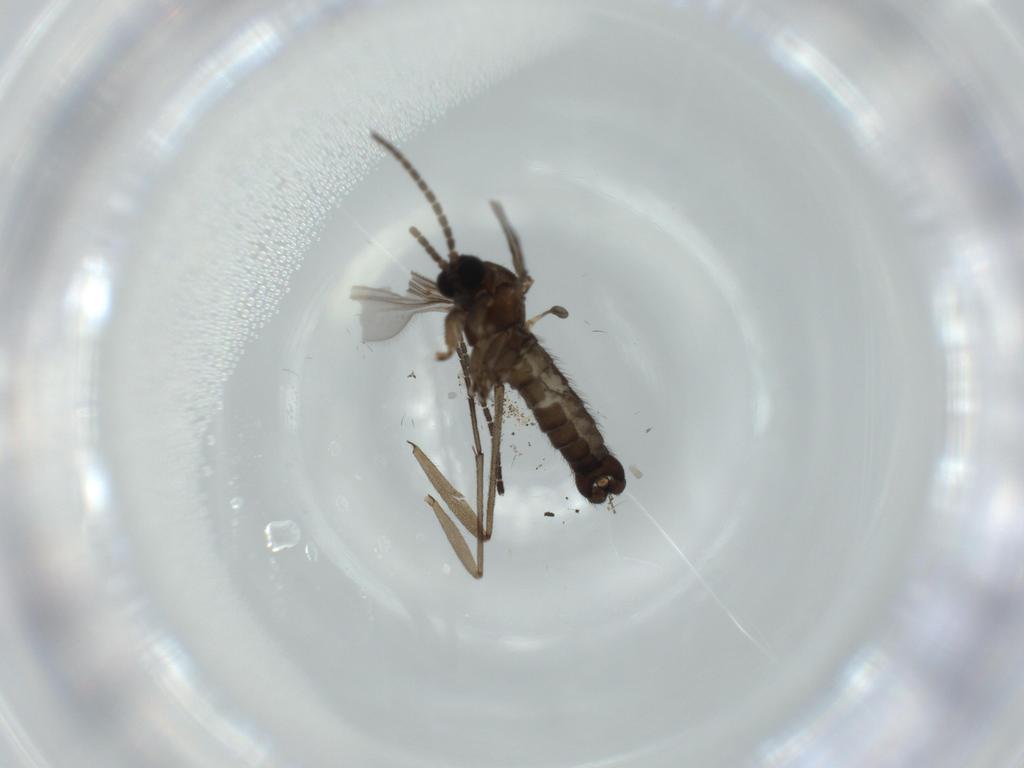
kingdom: Animalia
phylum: Arthropoda
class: Insecta
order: Diptera
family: Sciaridae
